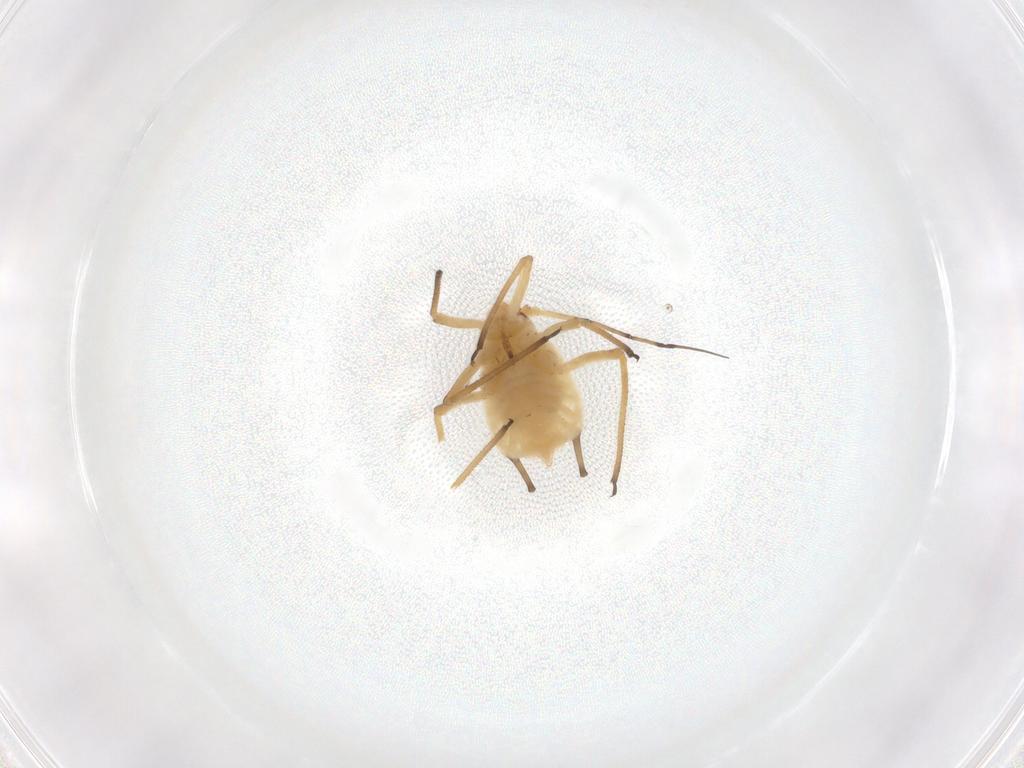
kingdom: Animalia
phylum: Arthropoda
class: Insecta
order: Hemiptera
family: Aphididae
